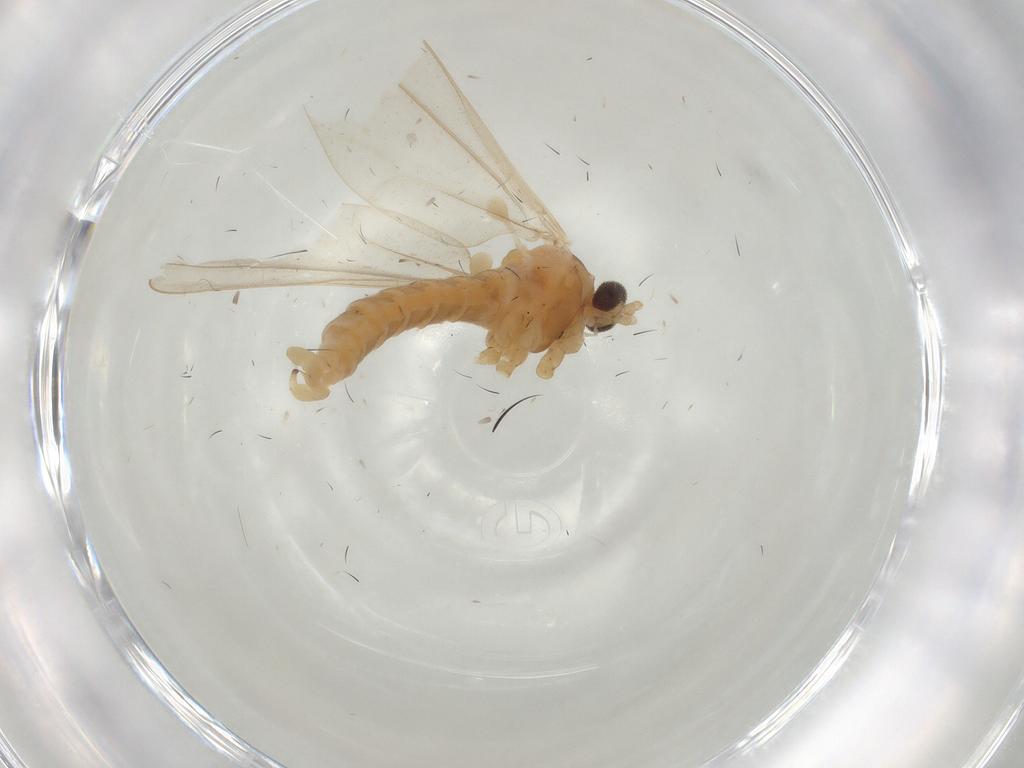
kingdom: Animalia
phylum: Arthropoda
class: Insecta
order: Diptera
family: Cecidomyiidae
